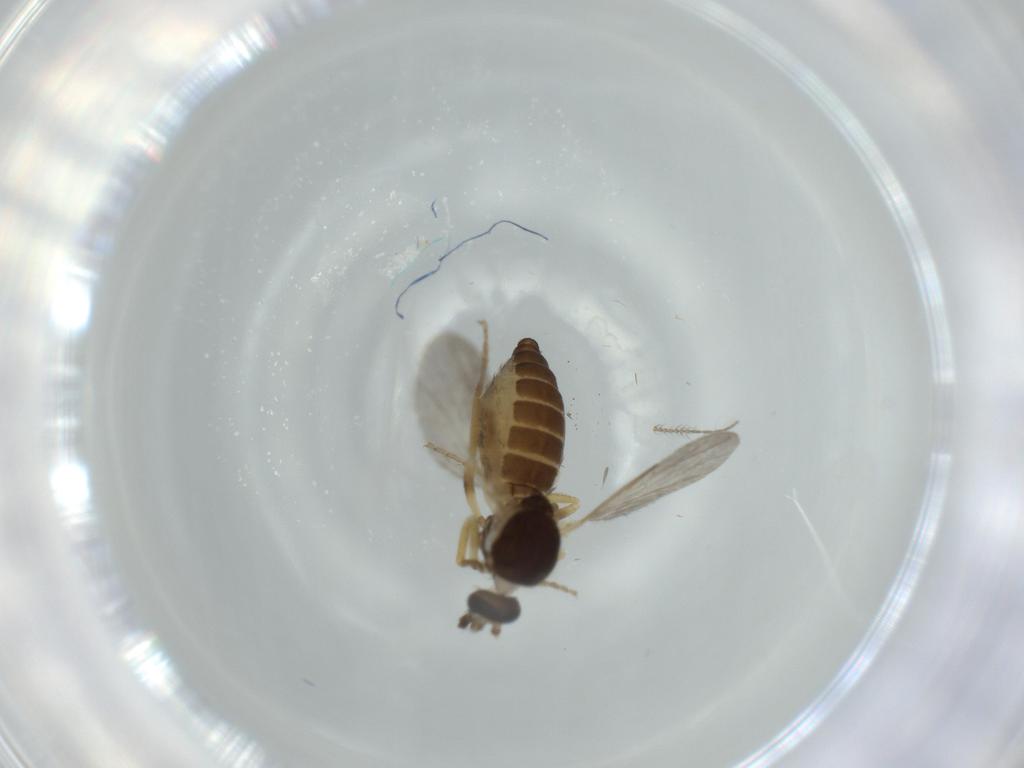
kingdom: Animalia
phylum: Arthropoda
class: Insecta
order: Diptera
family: Ceratopogonidae
